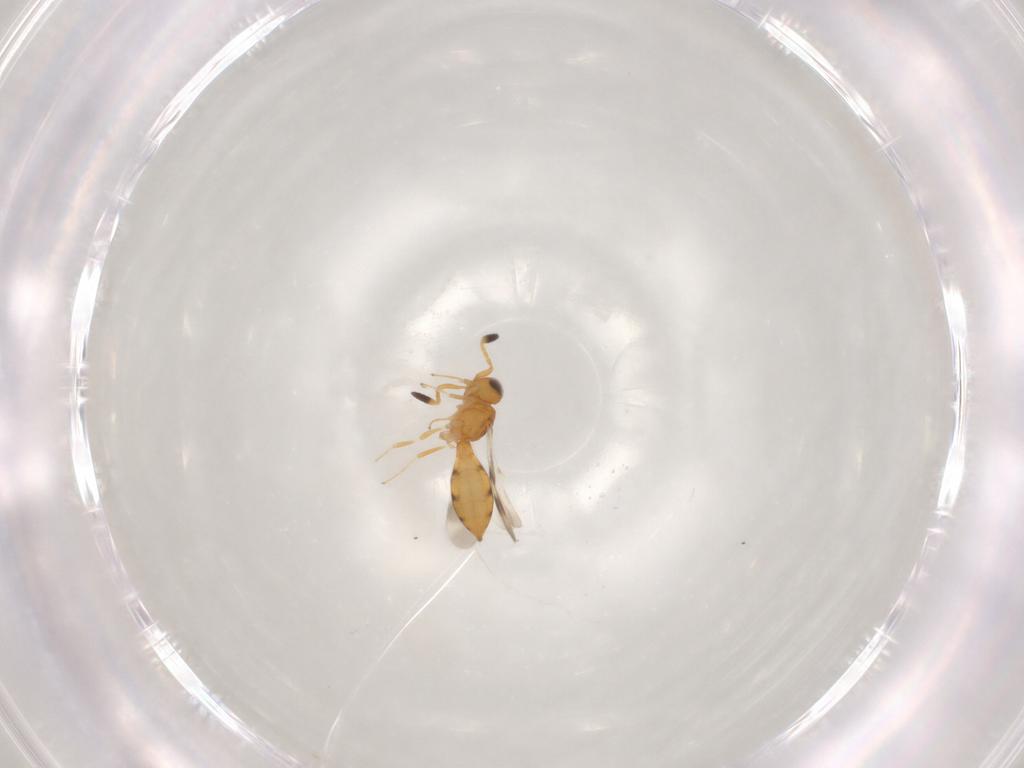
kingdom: Animalia
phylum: Arthropoda
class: Insecta
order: Hymenoptera
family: Scelionidae
